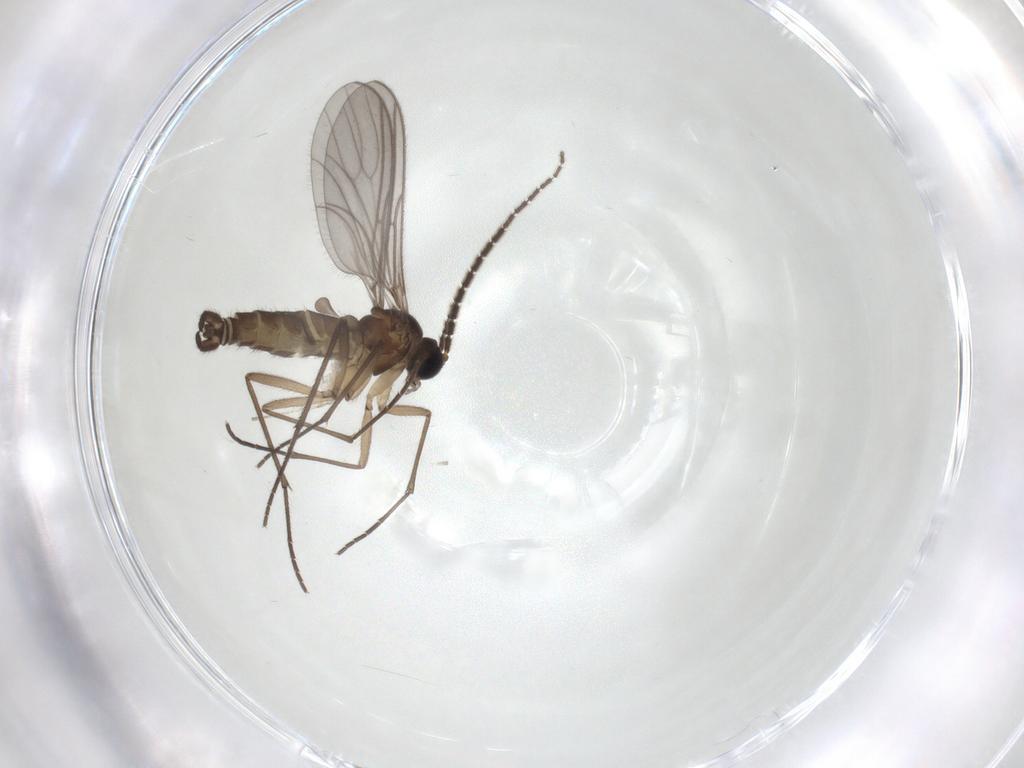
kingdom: Animalia
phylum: Arthropoda
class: Insecta
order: Diptera
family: Sciaridae
